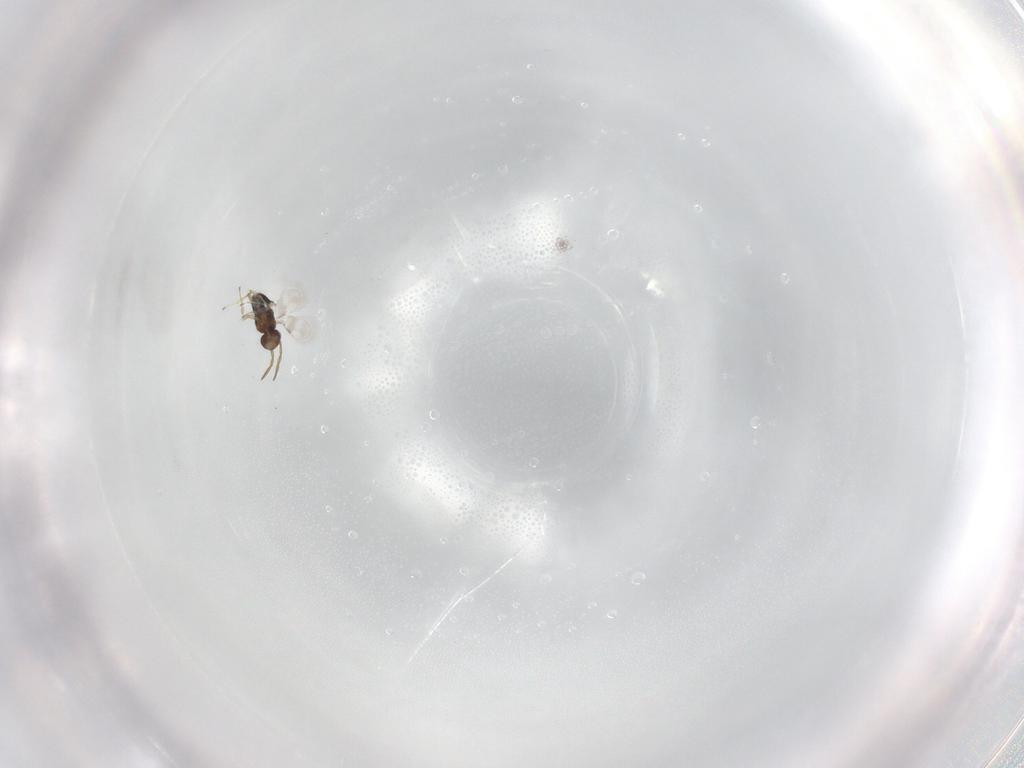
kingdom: Animalia
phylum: Arthropoda
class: Insecta
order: Hymenoptera
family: Azotidae
